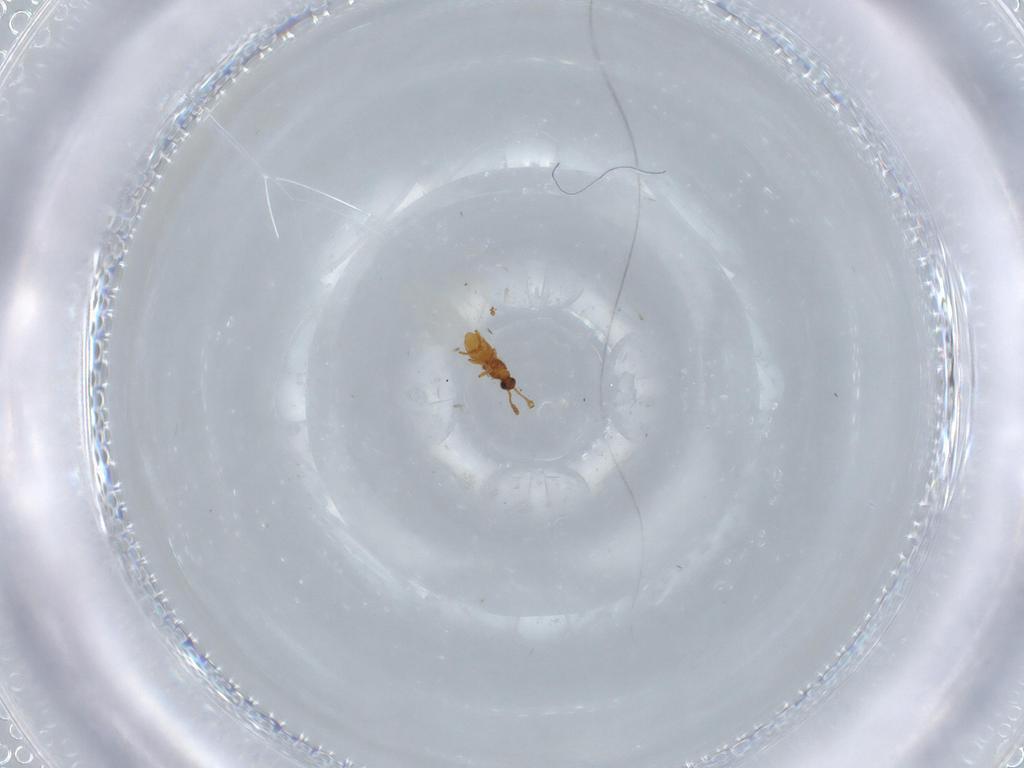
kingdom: Animalia
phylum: Arthropoda
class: Insecta
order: Coleoptera
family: Staphylinidae
